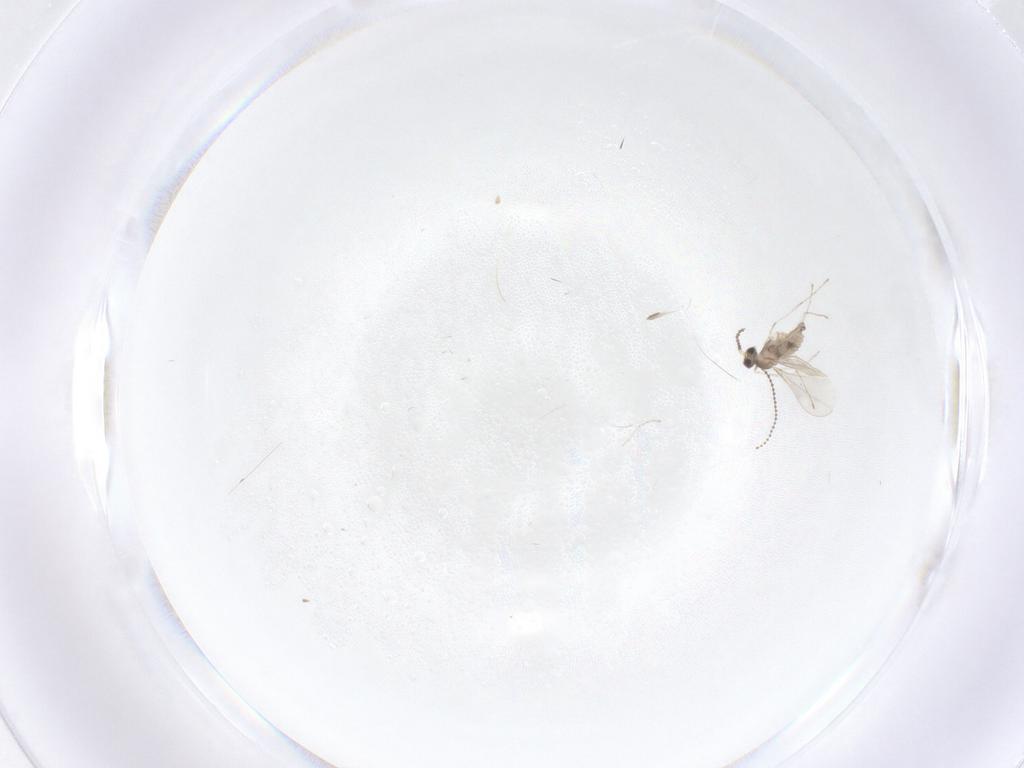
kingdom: Animalia
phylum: Arthropoda
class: Insecta
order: Diptera
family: Cecidomyiidae
